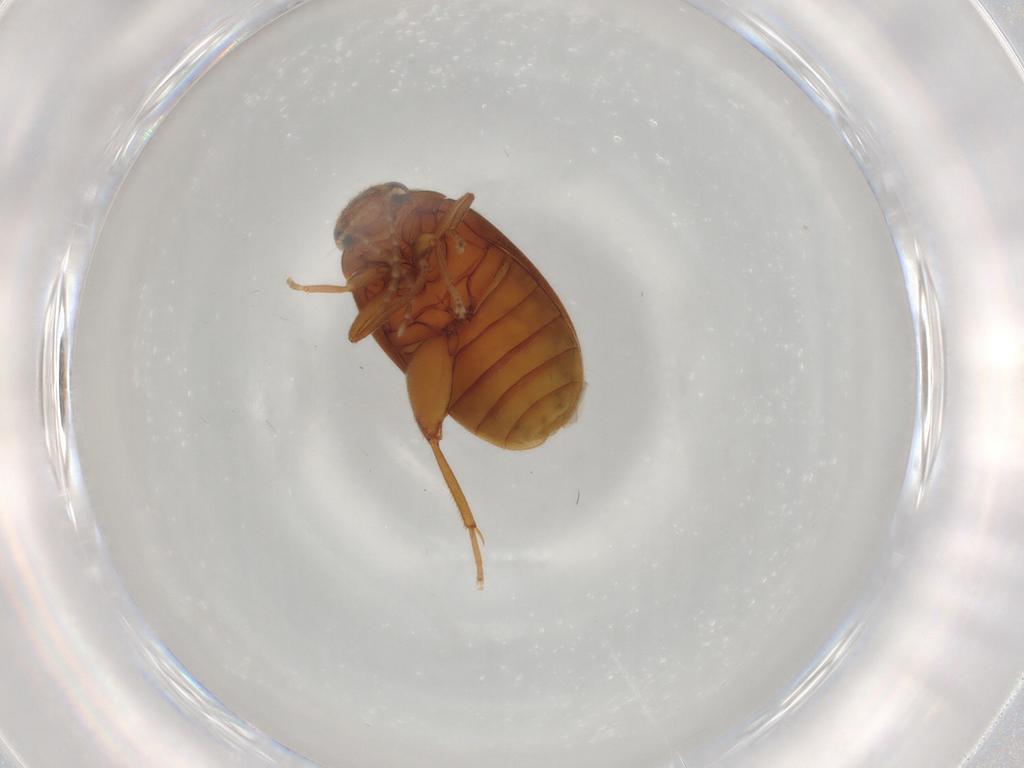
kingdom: Animalia
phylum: Arthropoda
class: Insecta
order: Coleoptera
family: Scirtidae
